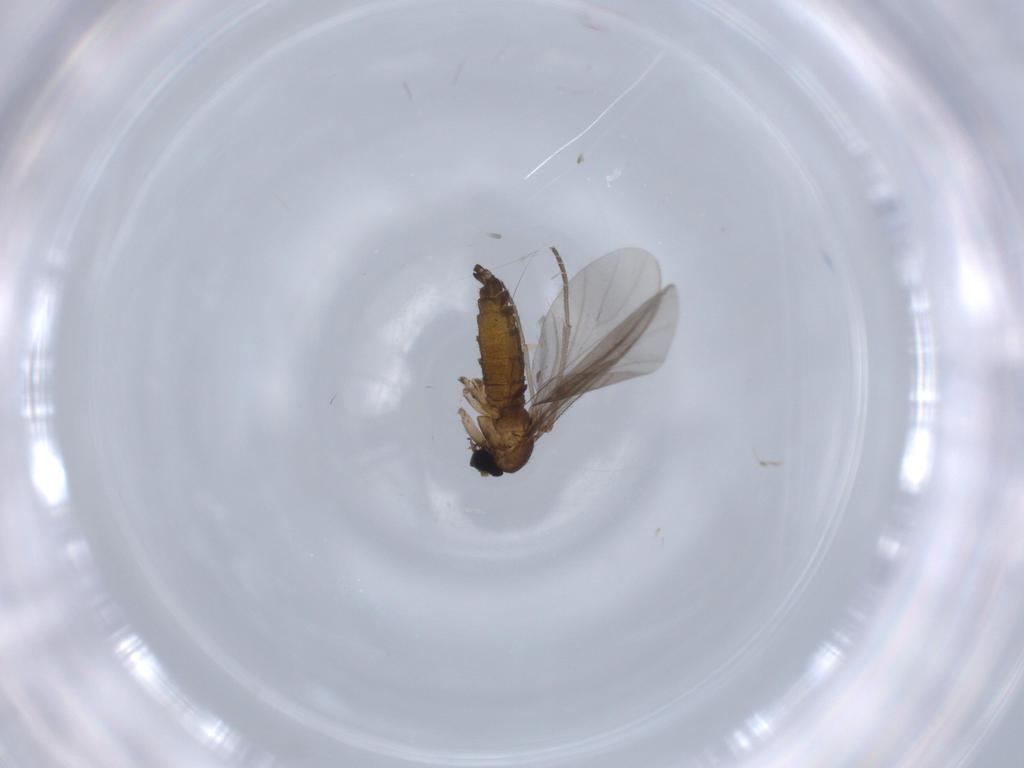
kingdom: Animalia
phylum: Arthropoda
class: Insecta
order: Diptera
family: Sciaridae
